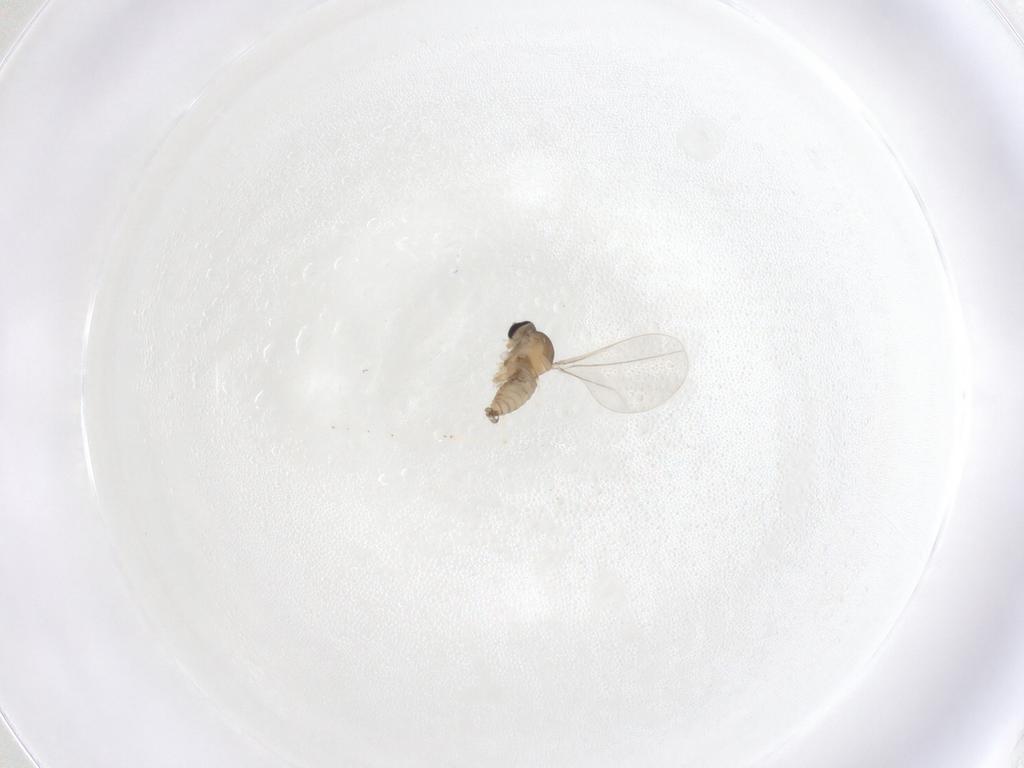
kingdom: Animalia
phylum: Arthropoda
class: Insecta
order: Diptera
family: Cecidomyiidae
